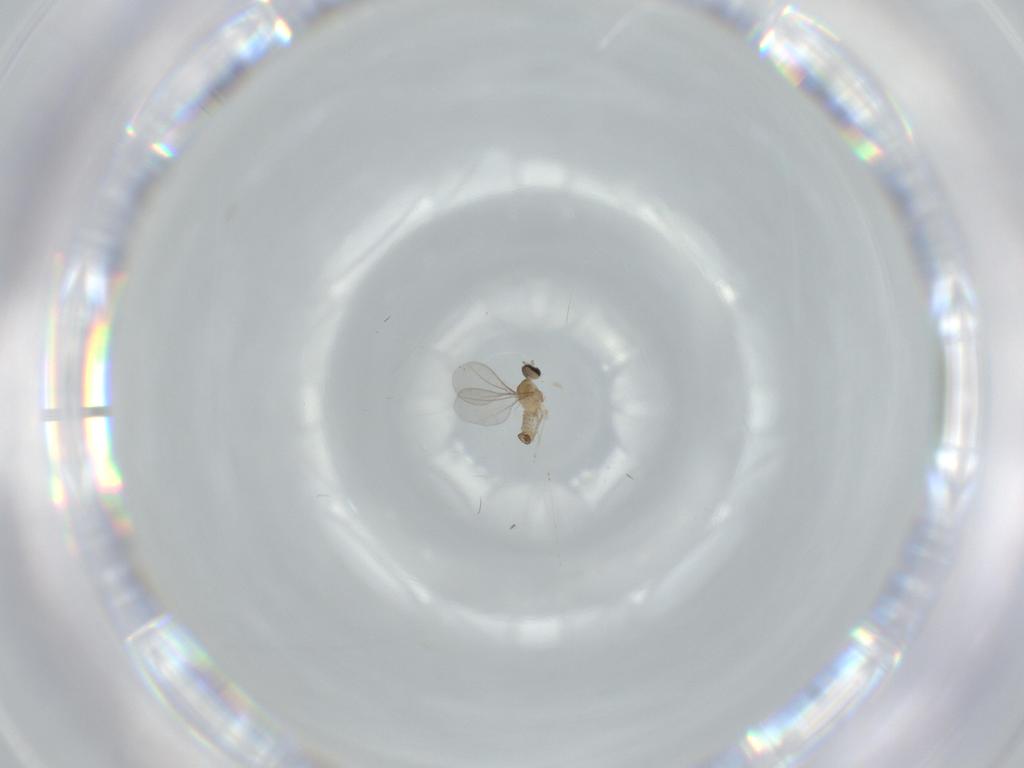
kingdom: Animalia
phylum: Arthropoda
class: Insecta
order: Diptera
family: Cecidomyiidae
